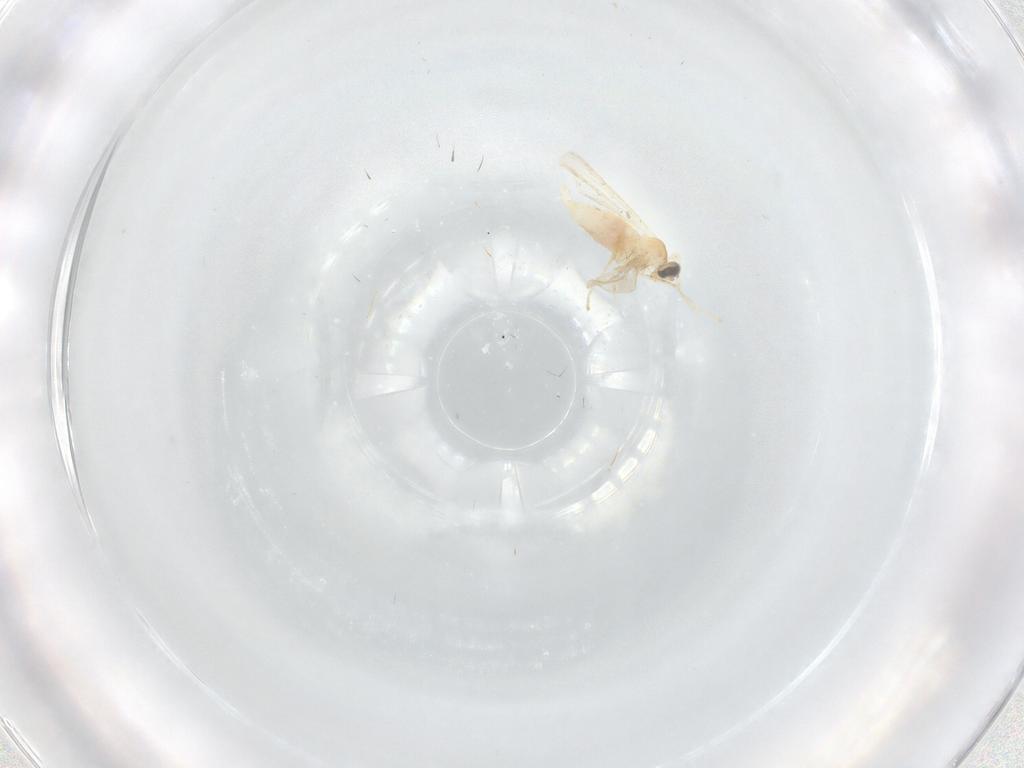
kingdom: Animalia
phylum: Arthropoda
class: Insecta
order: Diptera
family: Cecidomyiidae
